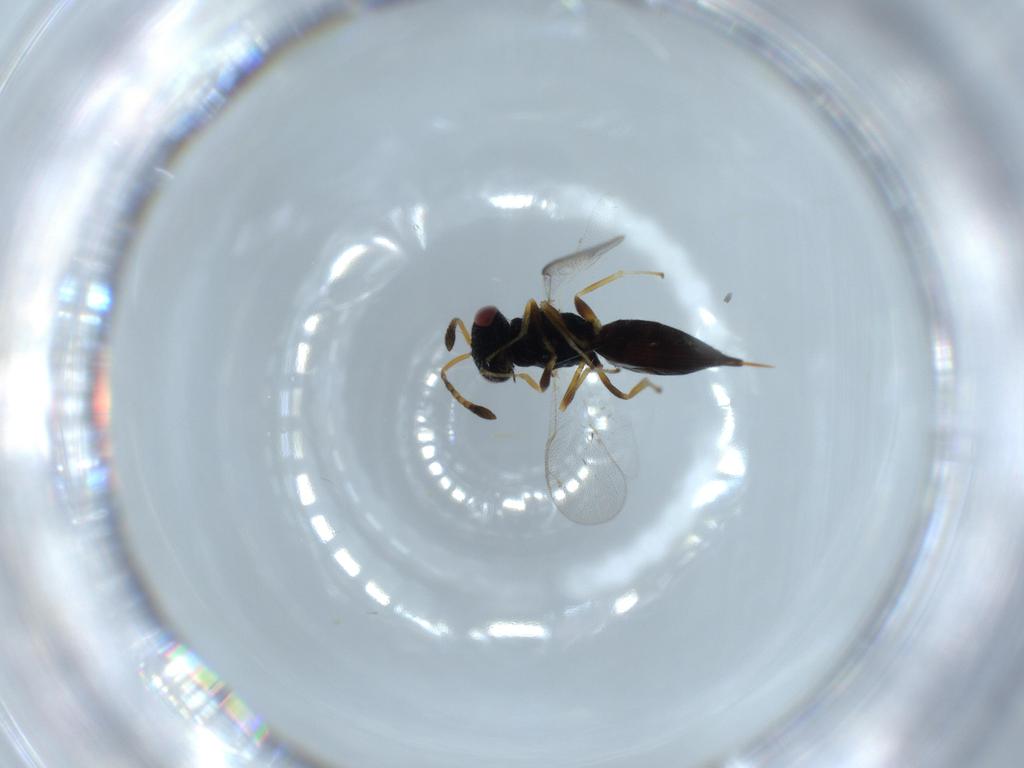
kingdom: Animalia
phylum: Arthropoda
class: Insecta
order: Hymenoptera
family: Pteromalidae
